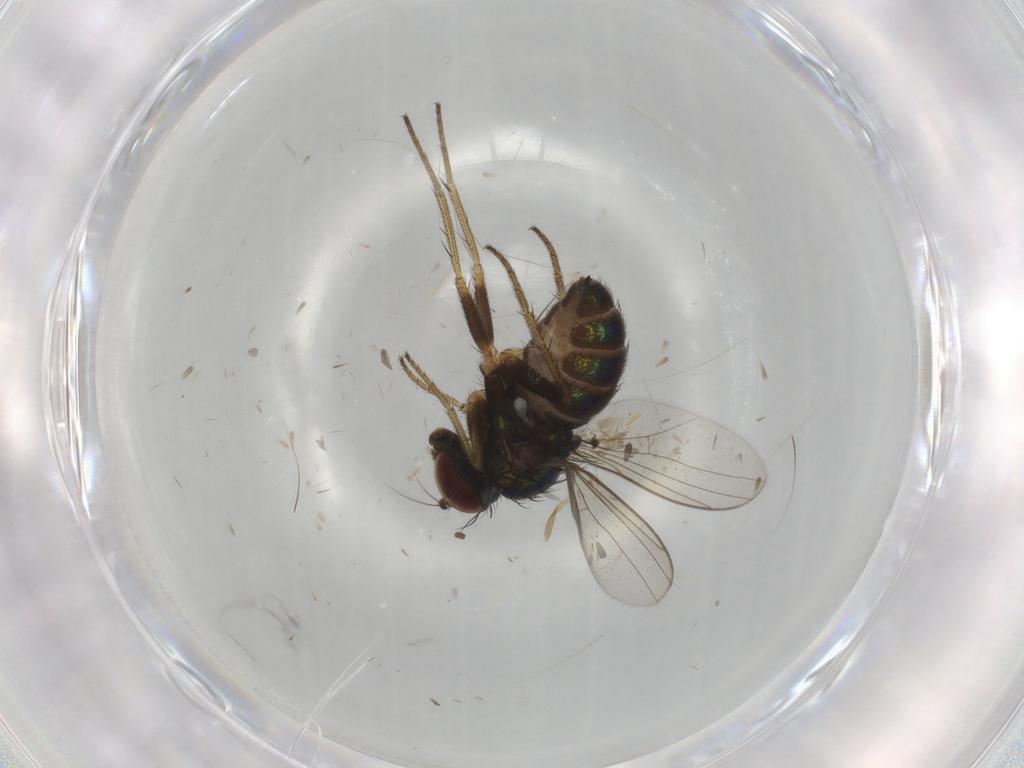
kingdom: Animalia
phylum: Arthropoda
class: Insecta
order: Diptera
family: Dolichopodidae
